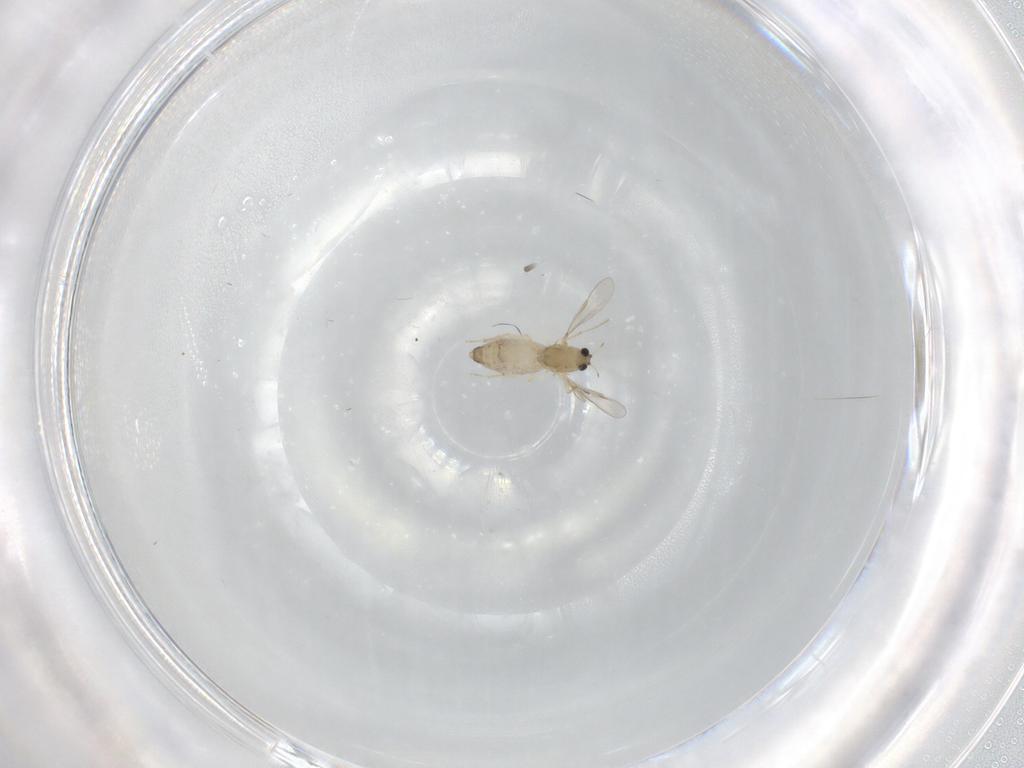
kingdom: Animalia
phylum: Arthropoda
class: Insecta
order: Diptera
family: Chironomidae
